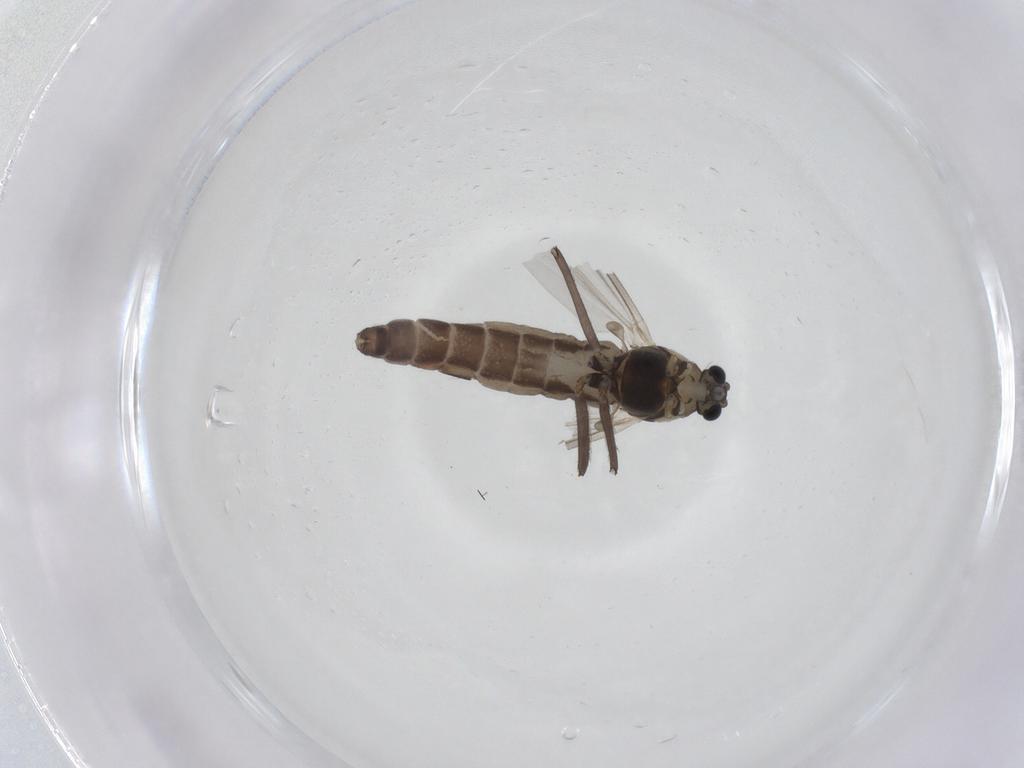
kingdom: Animalia
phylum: Arthropoda
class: Insecta
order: Diptera
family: Chironomidae
